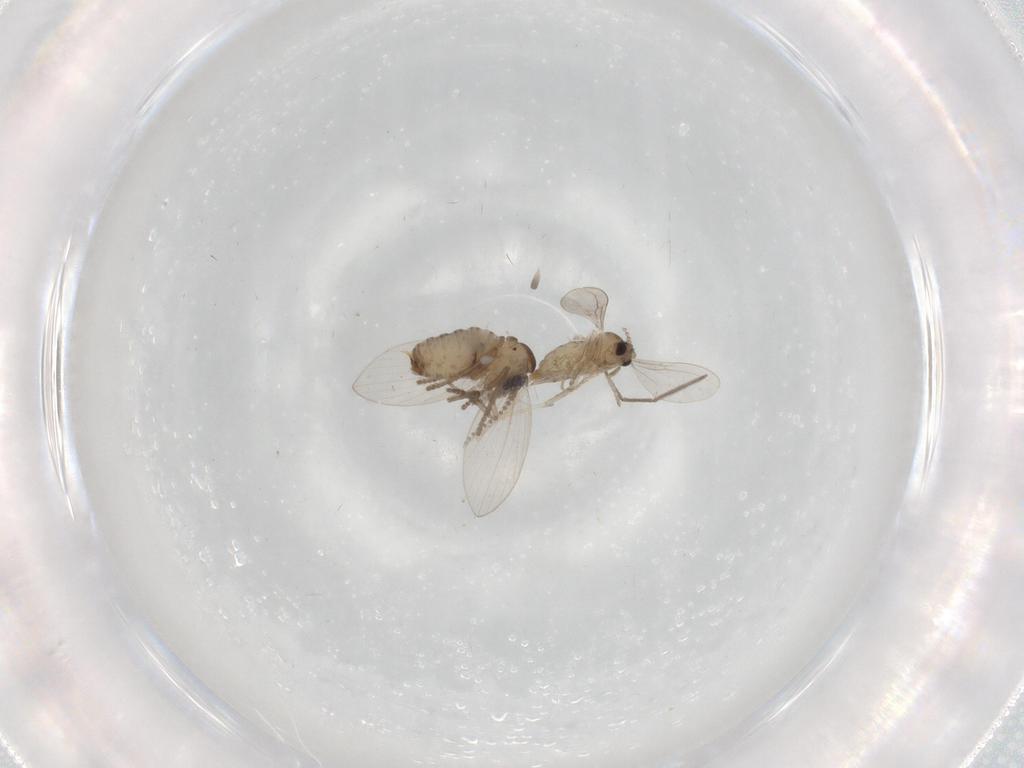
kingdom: Animalia
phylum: Arthropoda
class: Insecta
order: Diptera
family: Psychodidae
